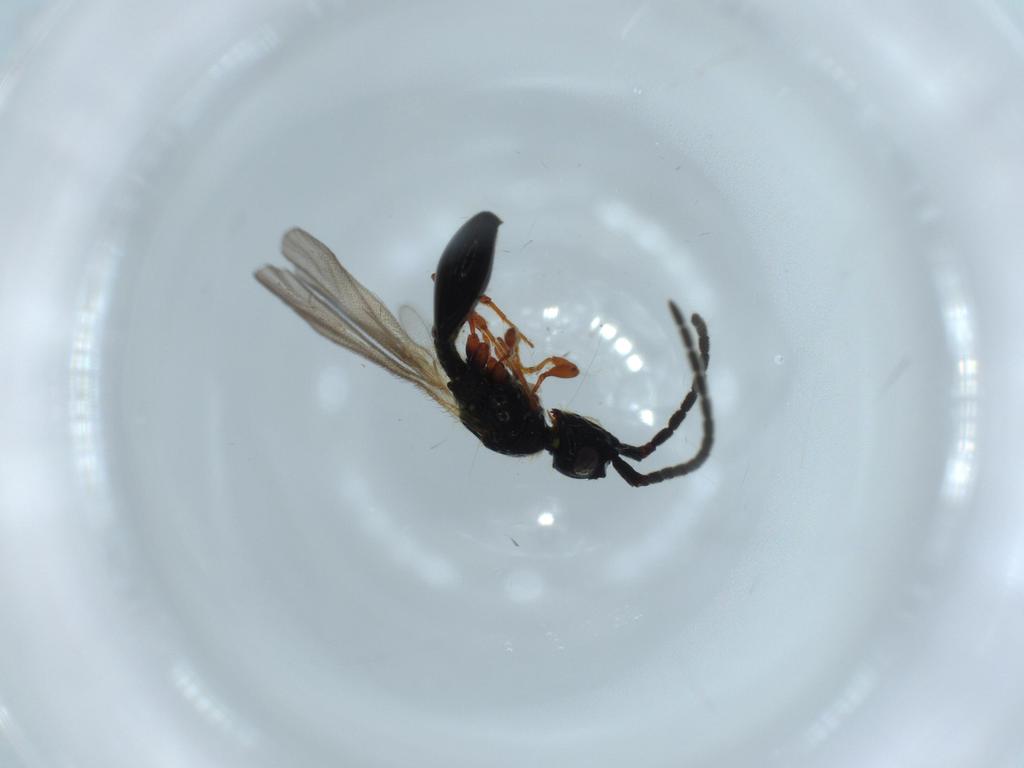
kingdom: Animalia
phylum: Arthropoda
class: Insecta
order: Hymenoptera
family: Diapriidae
